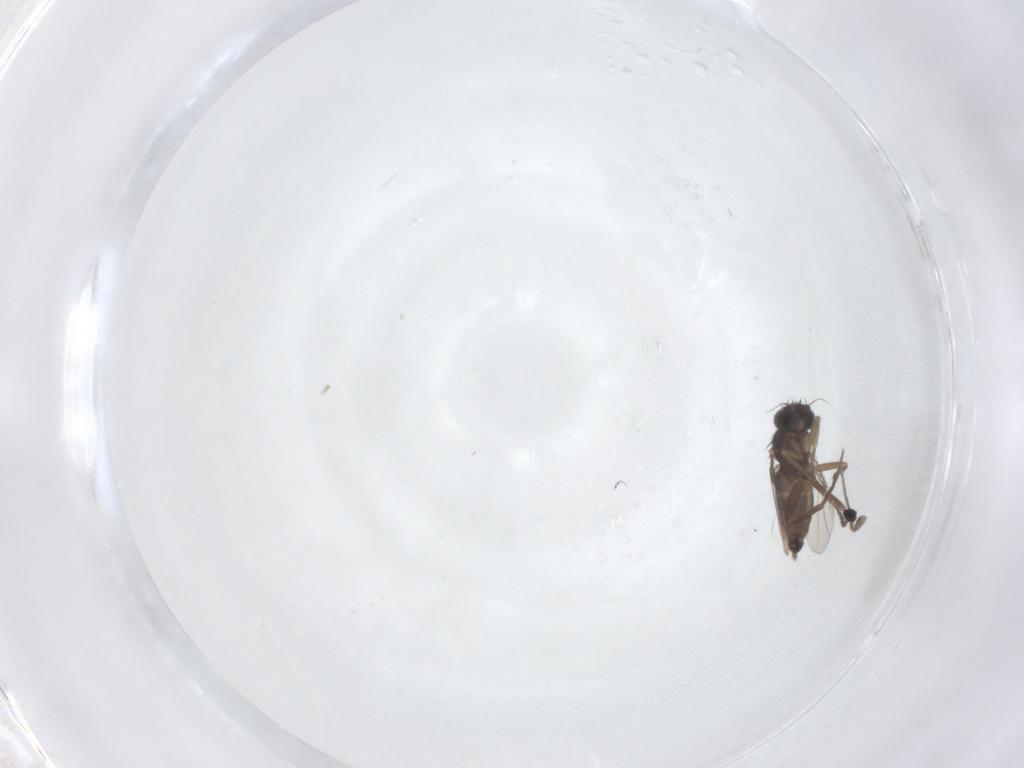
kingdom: Animalia
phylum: Arthropoda
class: Insecta
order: Diptera
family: Phoridae
